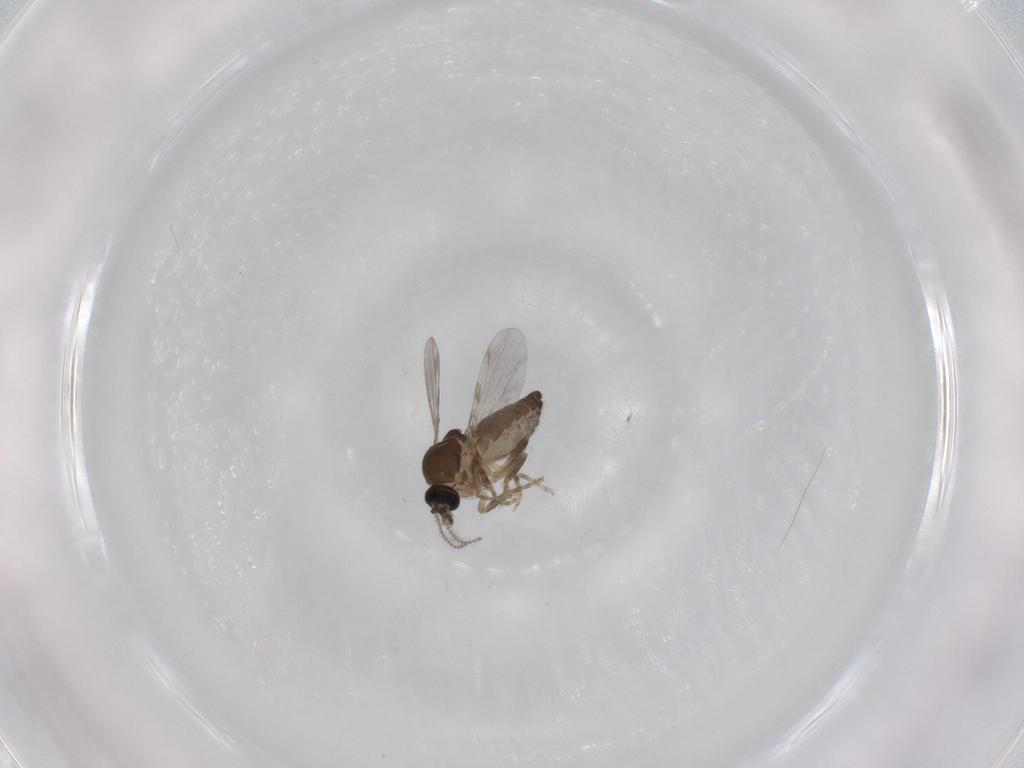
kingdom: Animalia
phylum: Arthropoda
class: Insecta
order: Diptera
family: Ceratopogonidae
